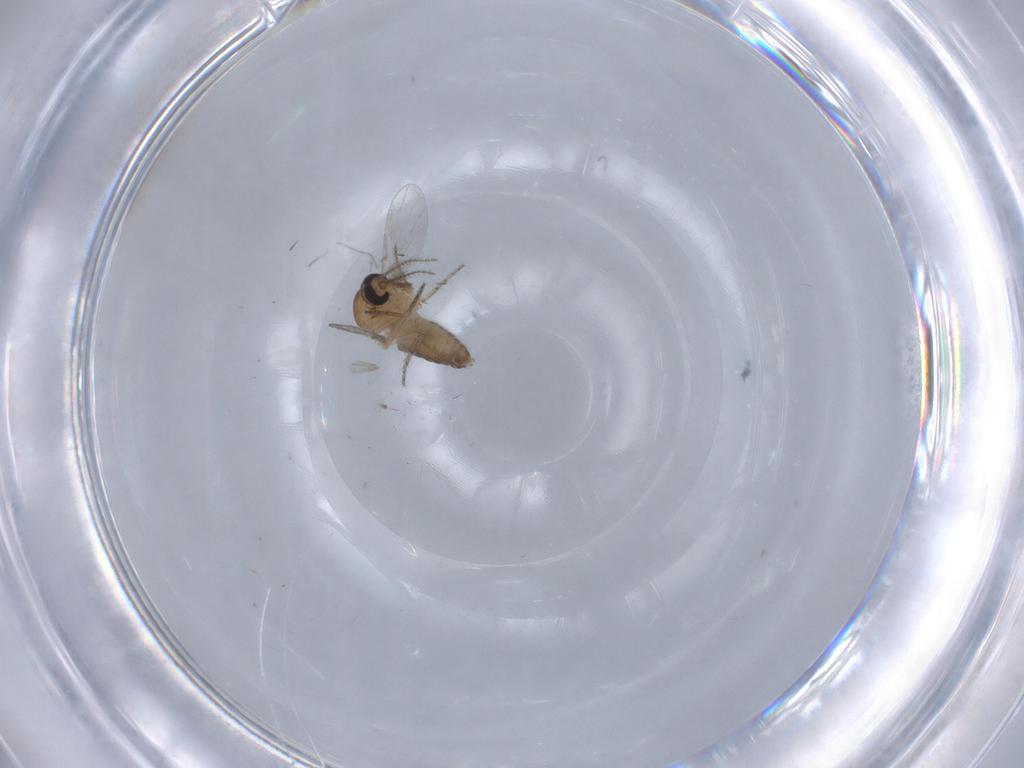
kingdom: Animalia
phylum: Arthropoda
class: Insecta
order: Diptera
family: Ceratopogonidae
